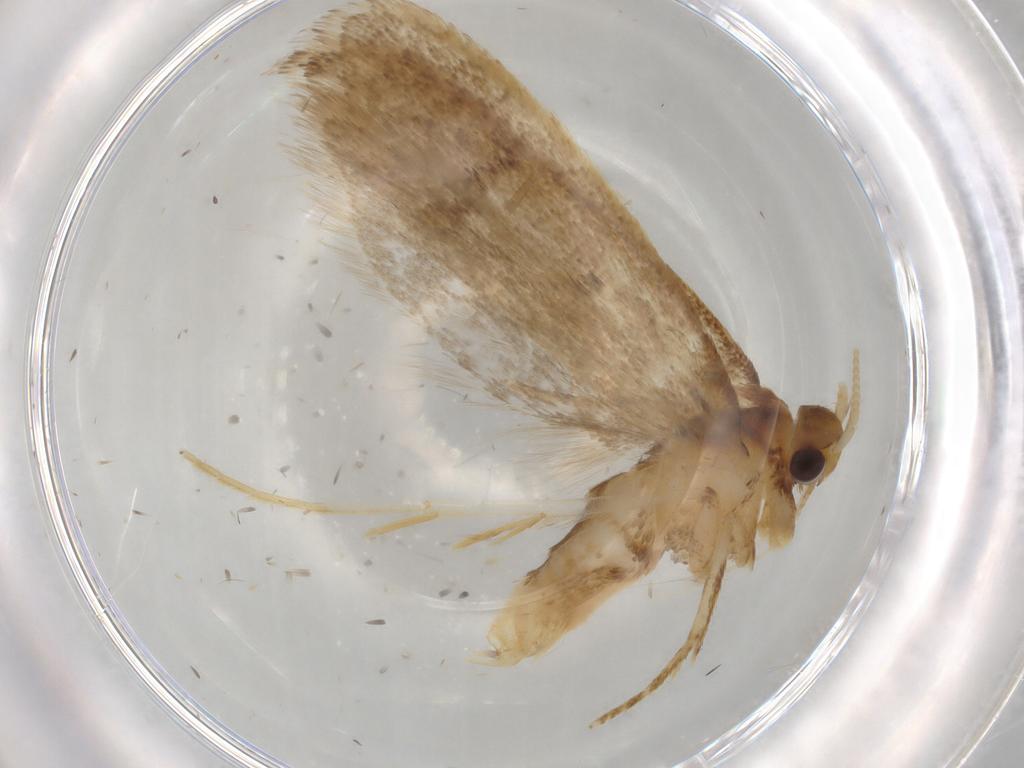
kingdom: Animalia
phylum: Arthropoda
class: Insecta
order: Lepidoptera
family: Lecithoceridae
